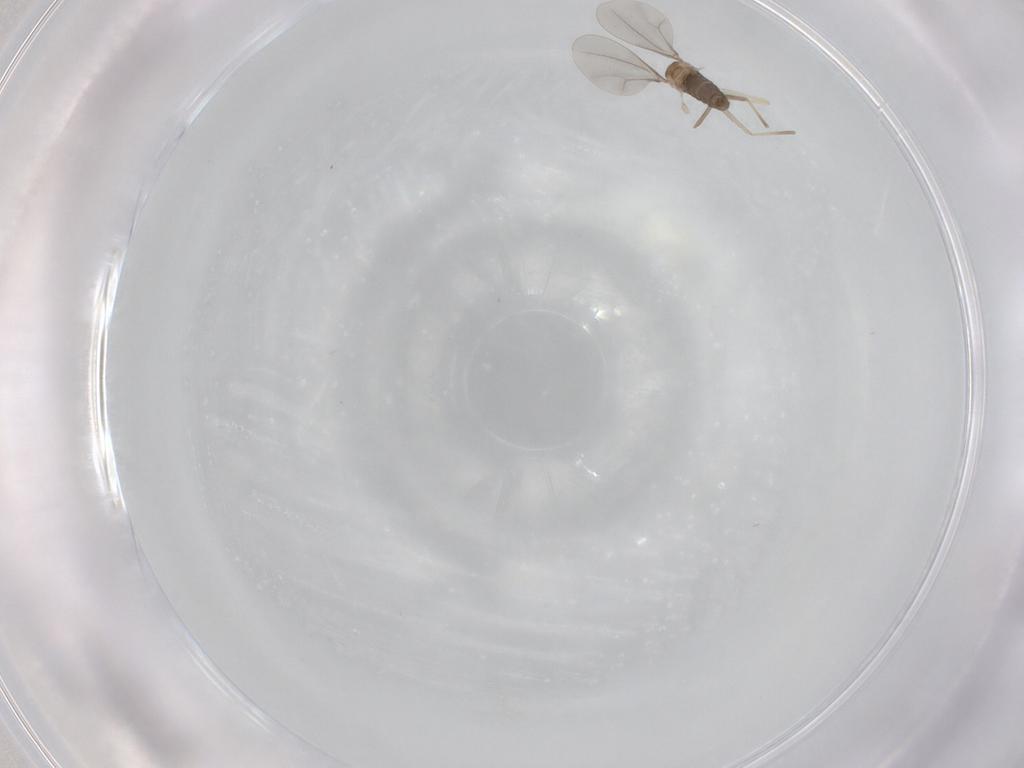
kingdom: Animalia
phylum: Arthropoda
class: Insecta
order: Diptera
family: Cecidomyiidae
